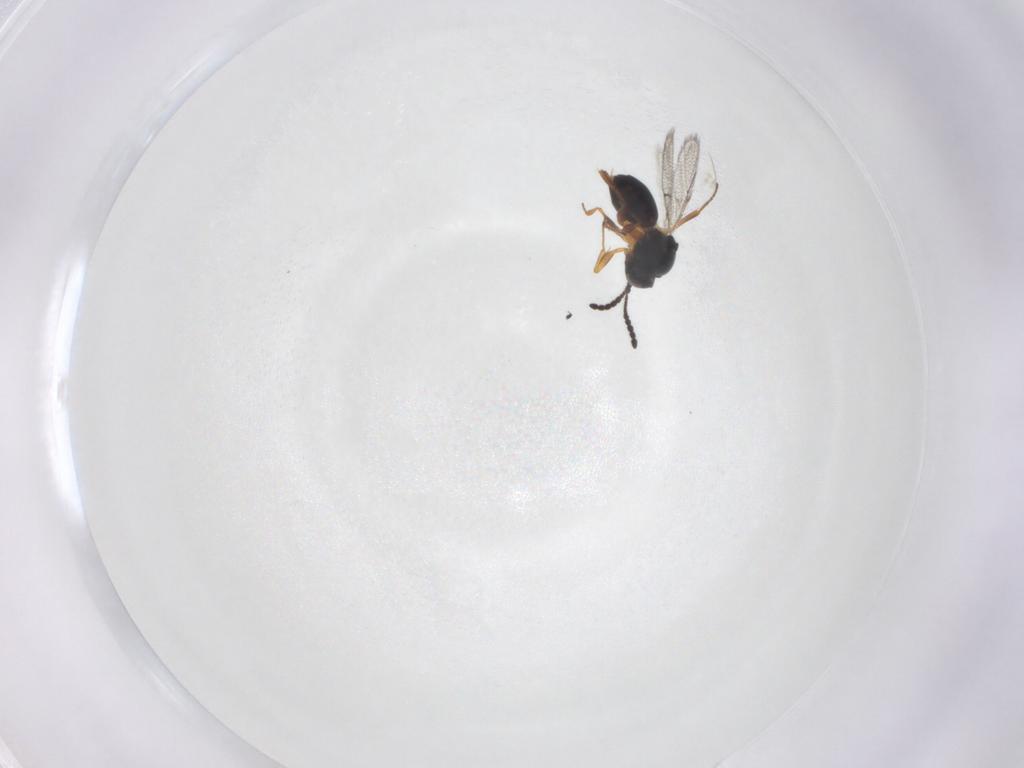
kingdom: Animalia
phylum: Arthropoda
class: Insecta
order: Hymenoptera
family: Figitidae
